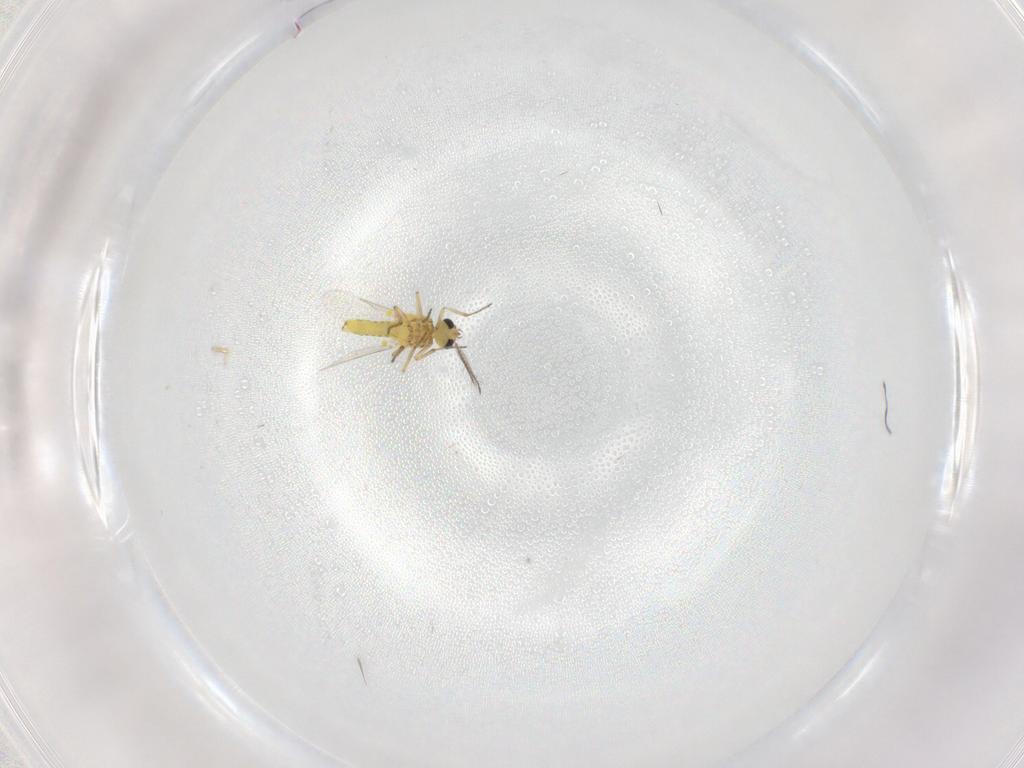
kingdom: Animalia
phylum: Arthropoda
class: Insecta
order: Diptera
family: Ceratopogonidae
